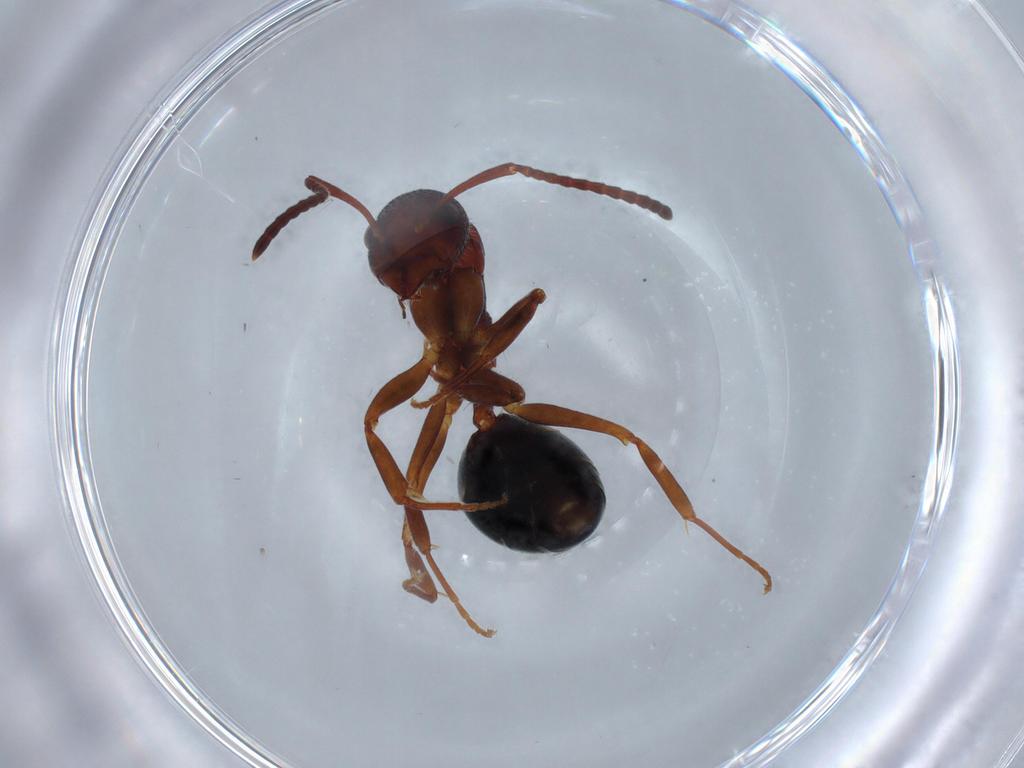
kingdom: Animalia
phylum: Arthropoda
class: Insecta
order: Hymenoptera
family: Formicidae
